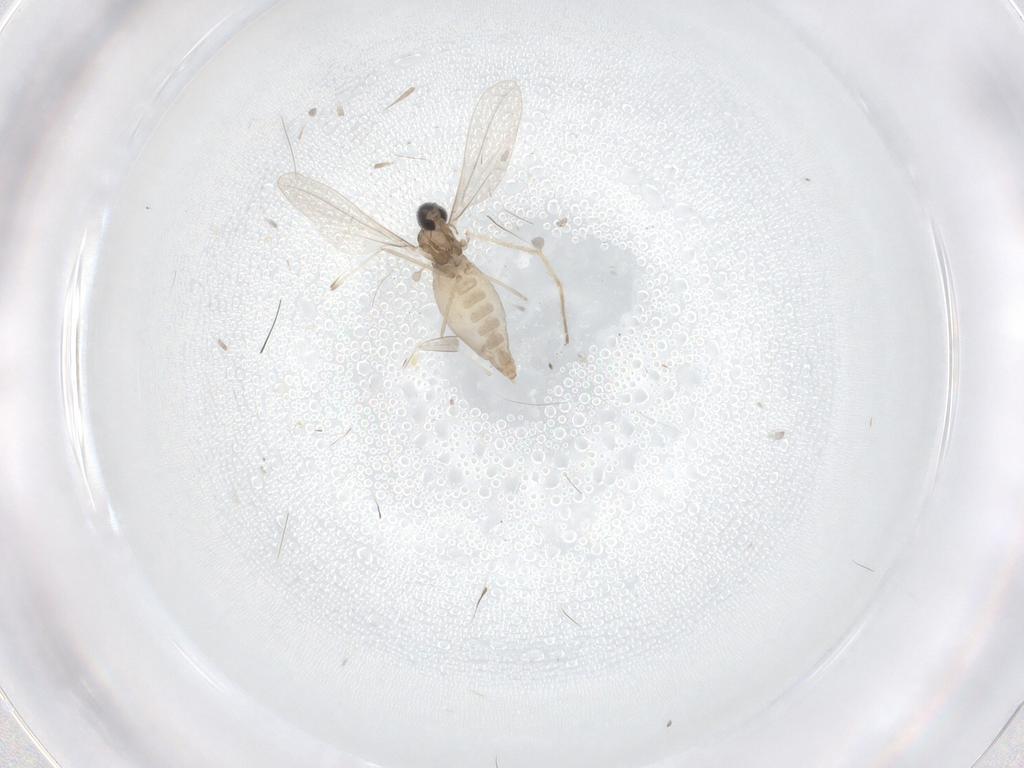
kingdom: Animalia
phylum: Arthropoda
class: Insecta
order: Diptera
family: Cecidomyiidae
